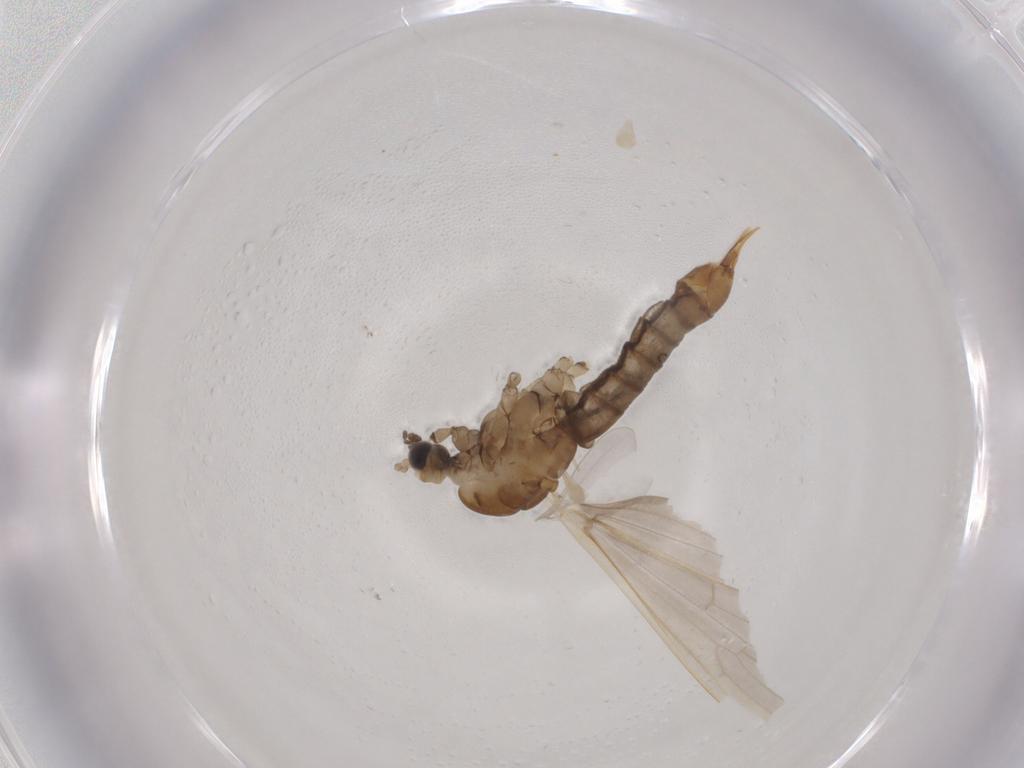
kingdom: Animalia
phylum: Arthropoda
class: Insecta
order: Diptera
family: Limoniidae
